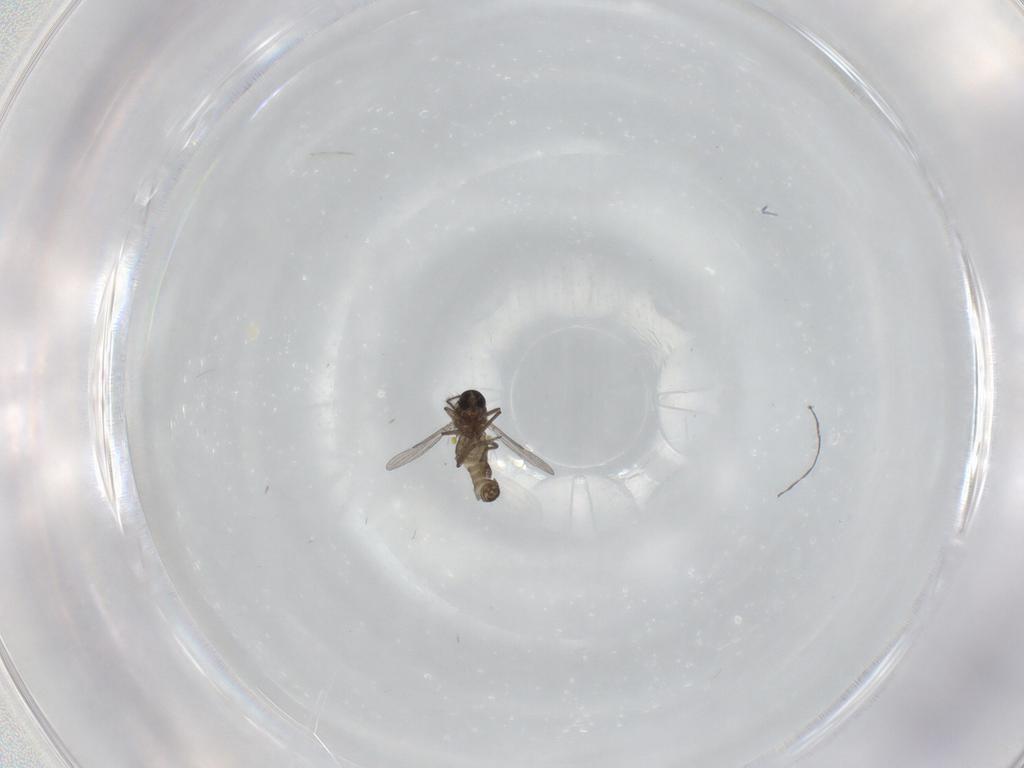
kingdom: Animalia
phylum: Arthropoda
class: Insecta
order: Diptera
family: Ceratopogonidae
